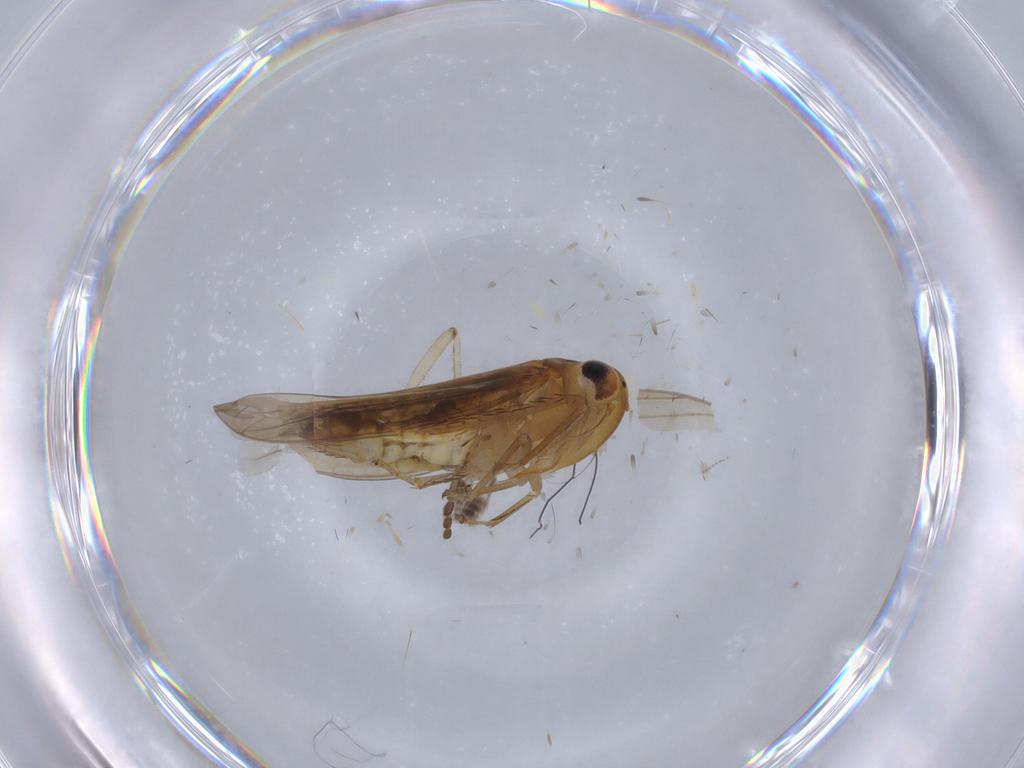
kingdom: Animalia
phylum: Arthropoda
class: Insecta
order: Hemiptera
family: Cicadellidae
